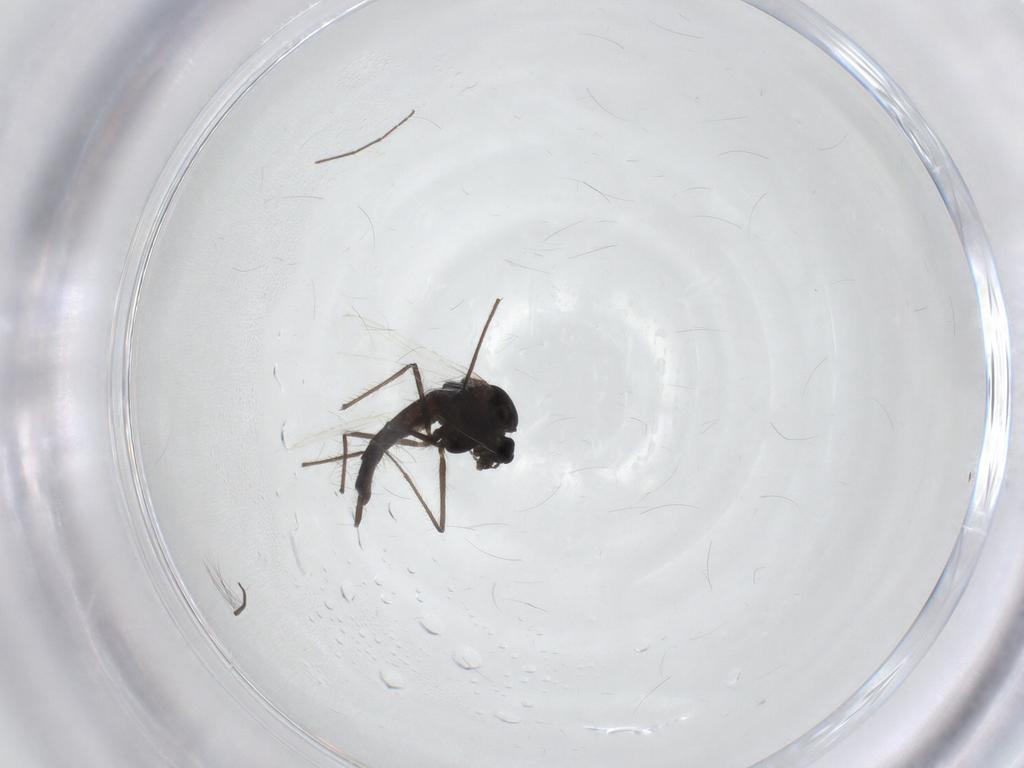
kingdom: Animalia
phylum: Arthropoda
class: Insecta
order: Diptera
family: Chironomidae
